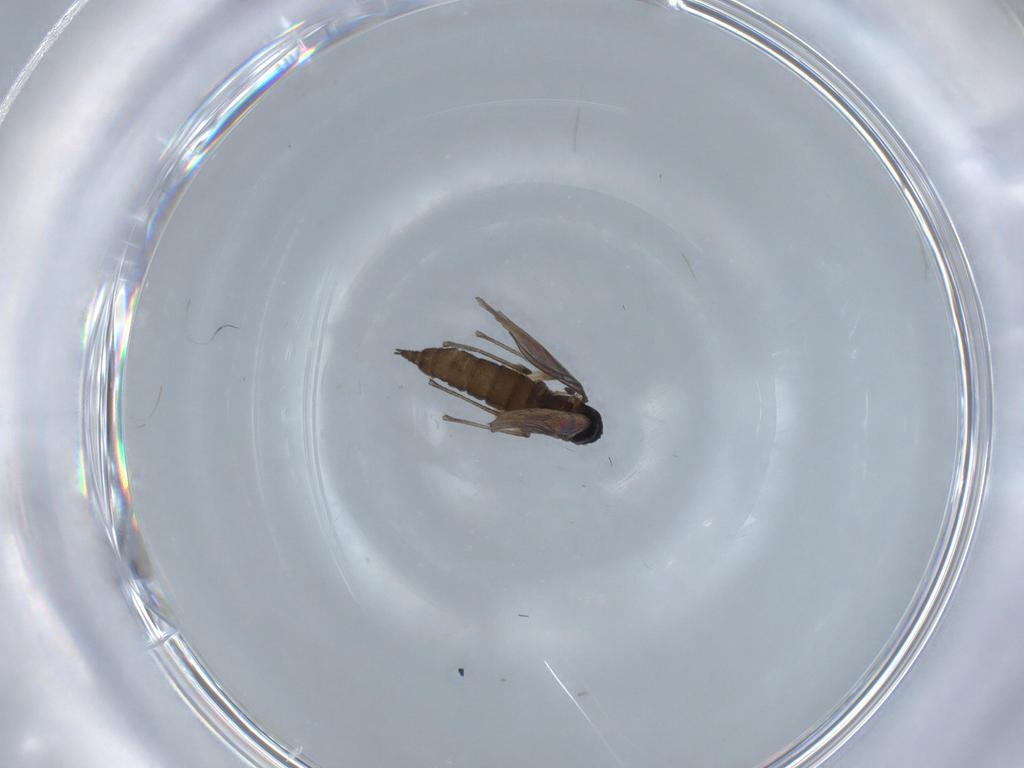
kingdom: Animalia
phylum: Arthropoda
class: Insecta
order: Diptera
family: Sciaridae
